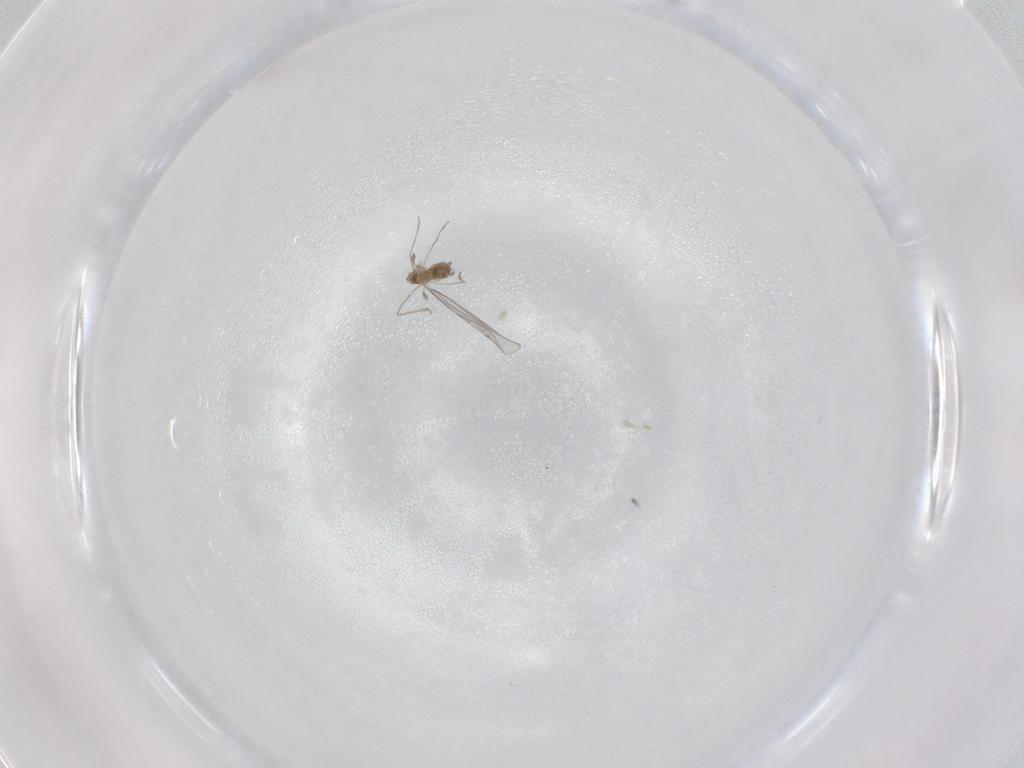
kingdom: Animalia
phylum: Arthropoda
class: Insecta
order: Diptera
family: Cecidomyiidae
